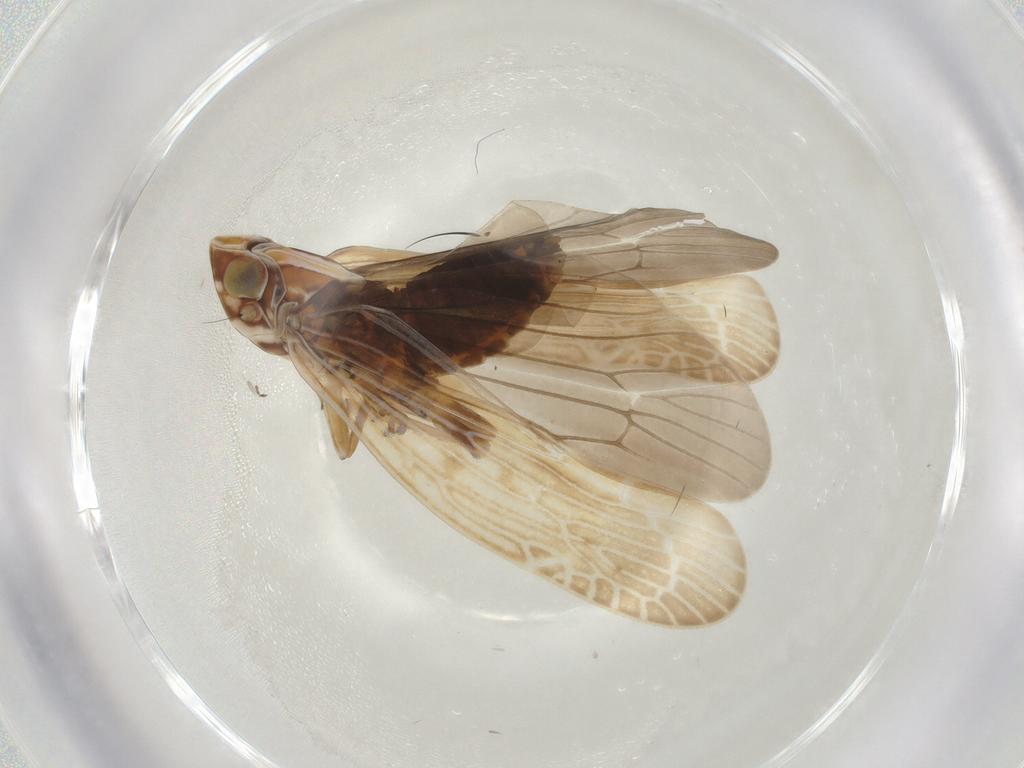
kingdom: Animalia
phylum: Arthropoda
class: Insecta
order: Hemiptera
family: Achilidae
